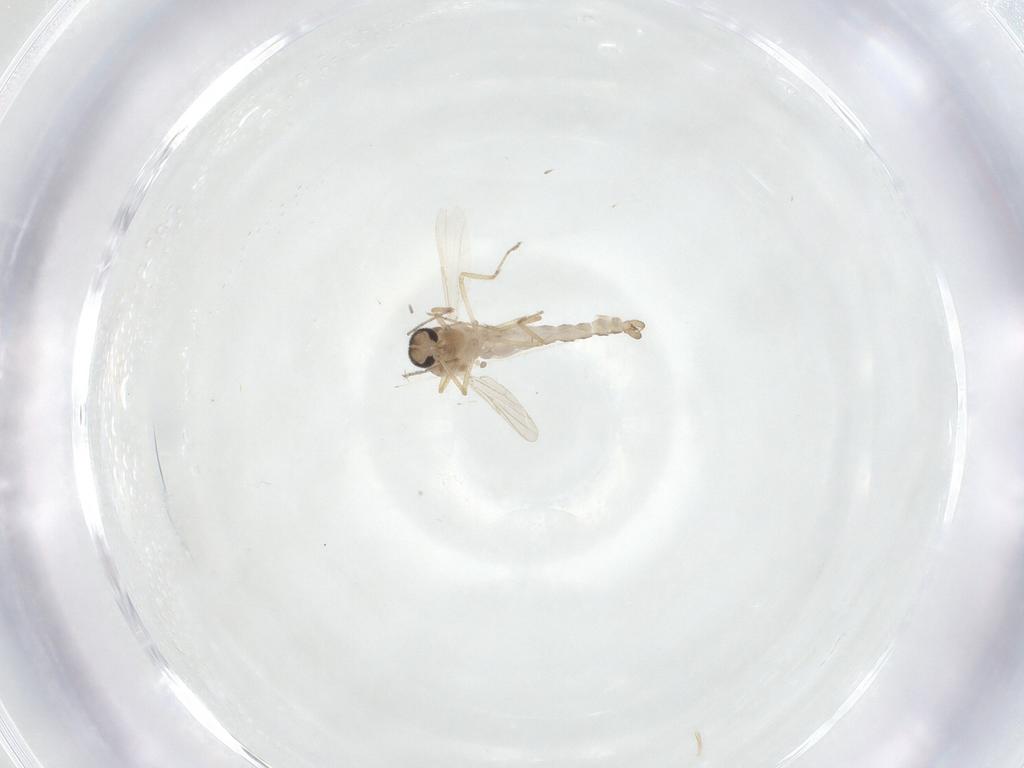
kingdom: Animalia
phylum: Arthropoda
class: Insecta
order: Diptera
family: Ceratopogonidae
